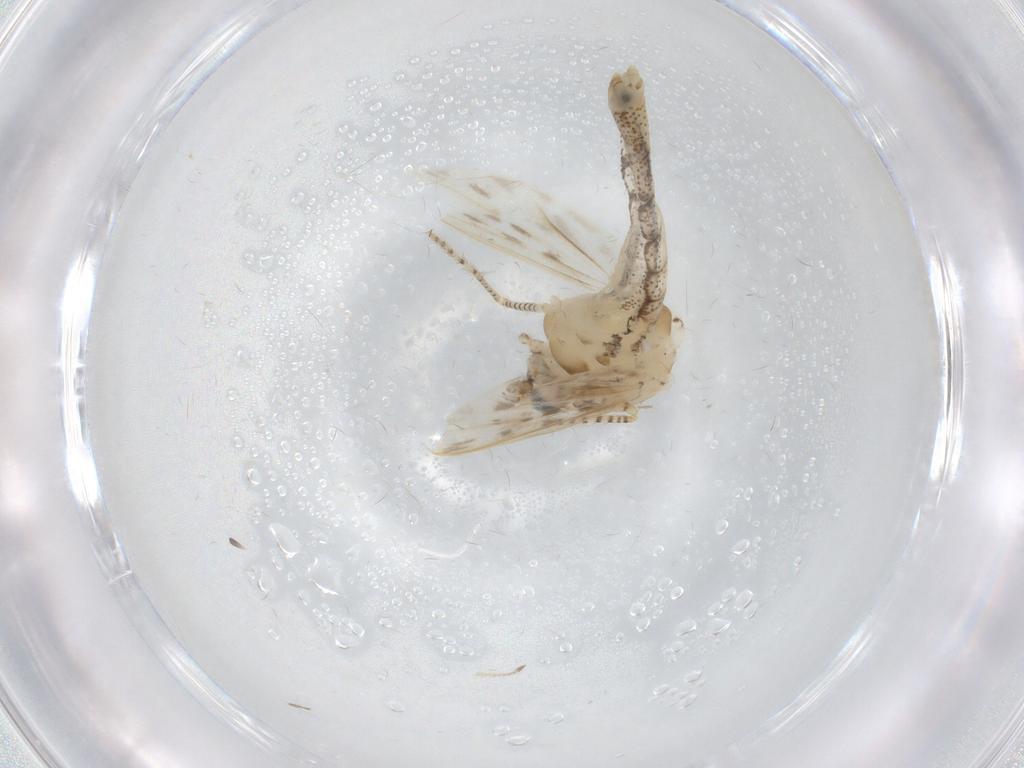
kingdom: Animalia
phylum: Arthropoda
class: Insecta
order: Diptera
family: Chaoboridae
